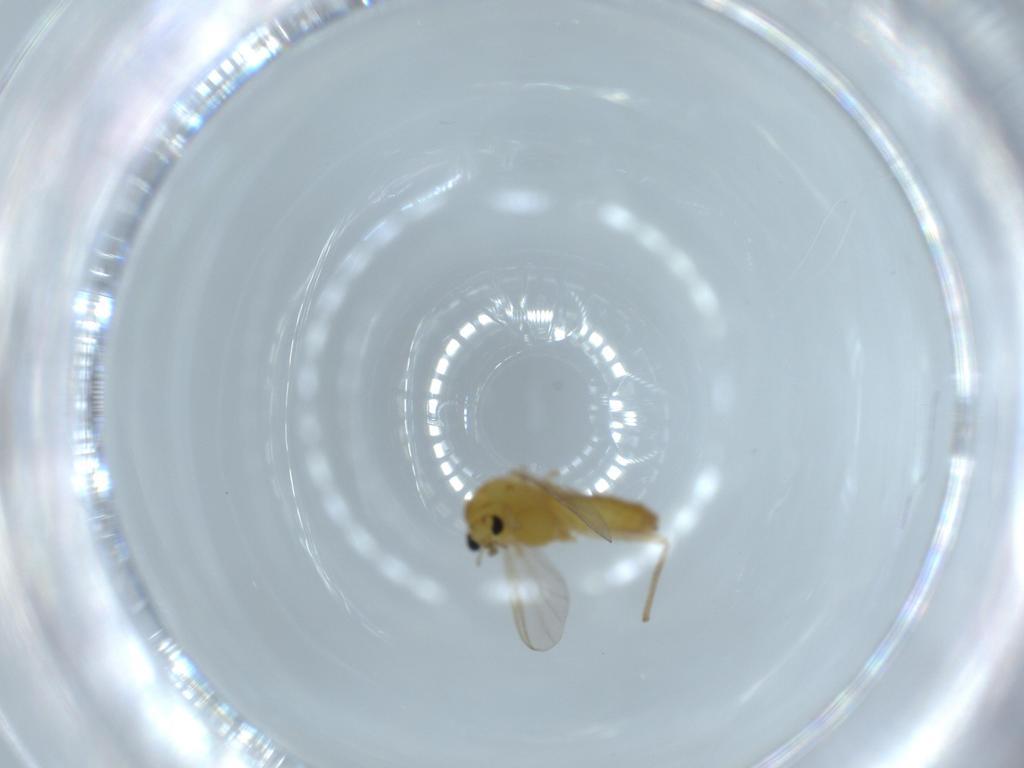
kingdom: Animalia
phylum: Arthropoda
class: Insecta
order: Diptera
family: Chironomidae
